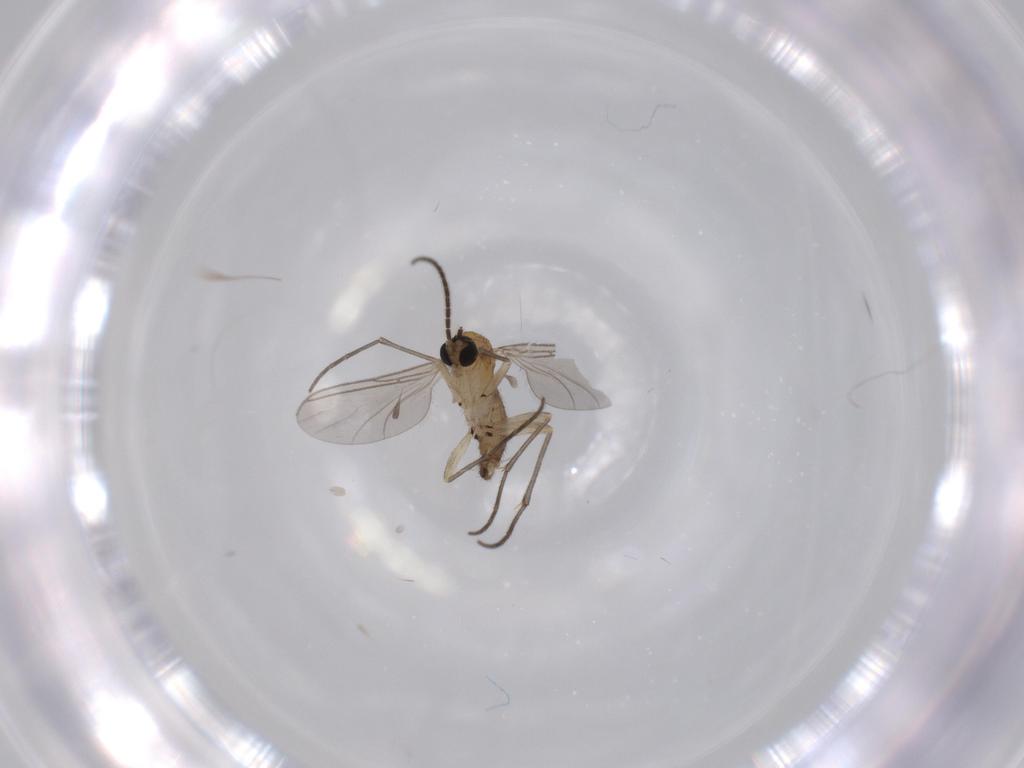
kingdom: Animalia
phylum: Arthropoda
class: Insecta
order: Diptera
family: Sciaridae
